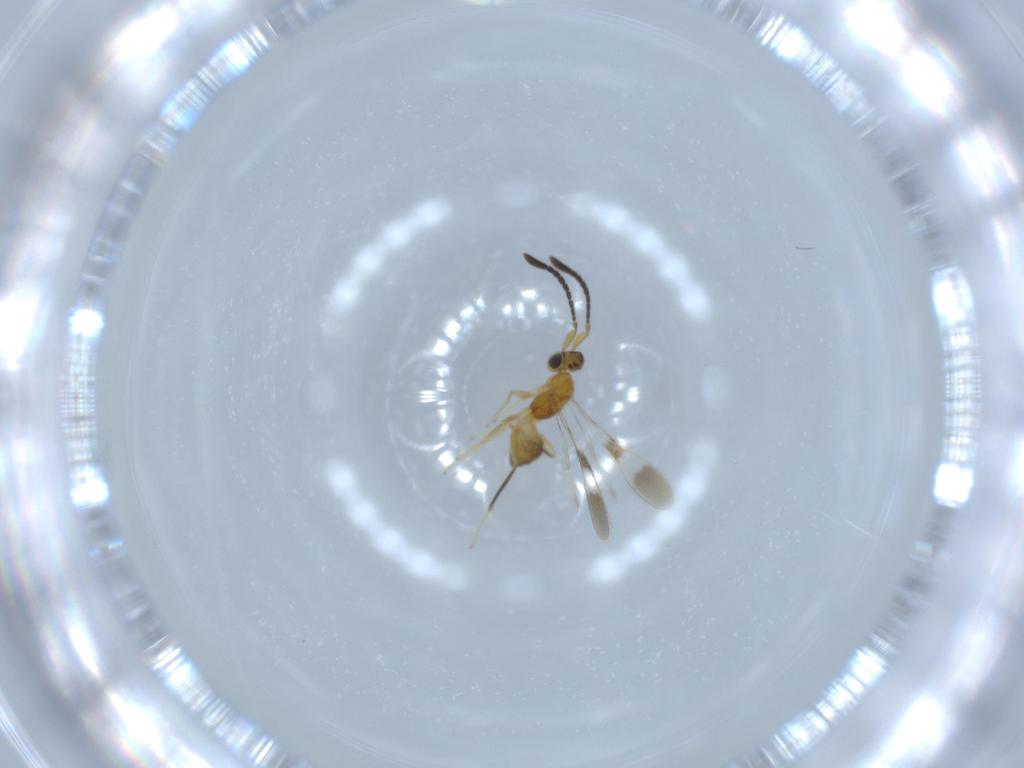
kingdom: Animalia
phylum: Arthropoda
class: Insecta
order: Hymenoptera
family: Mymaridae
